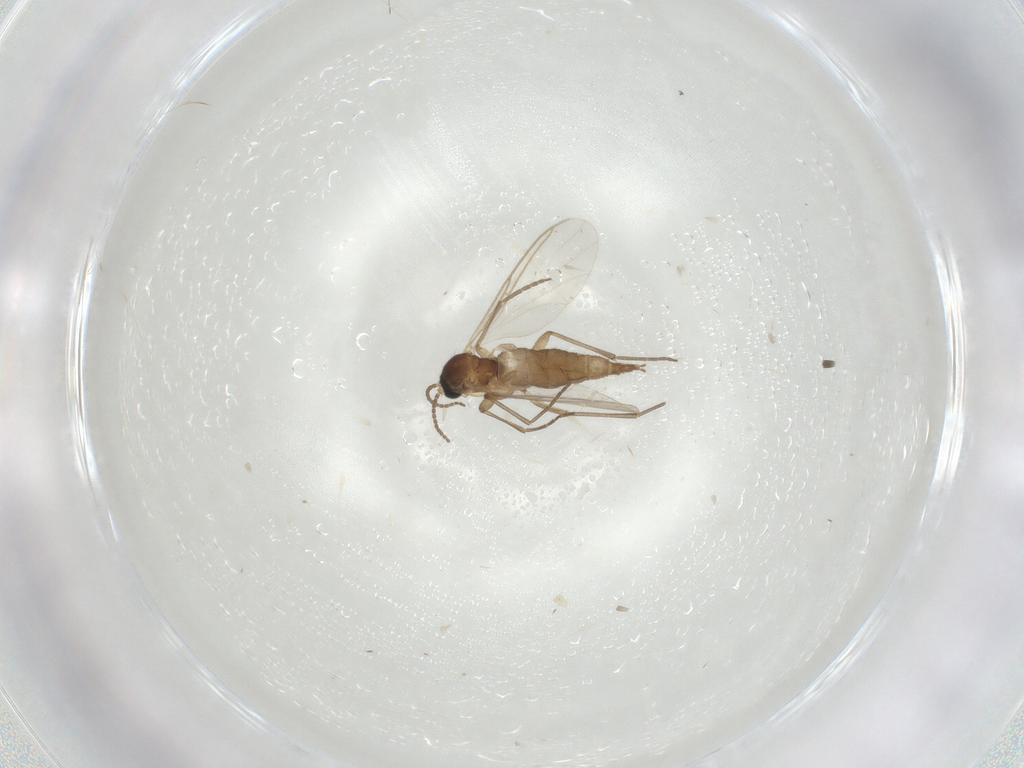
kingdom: Animalia
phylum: Arthropoda
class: Insecta
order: Diptera
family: Sciaridae
